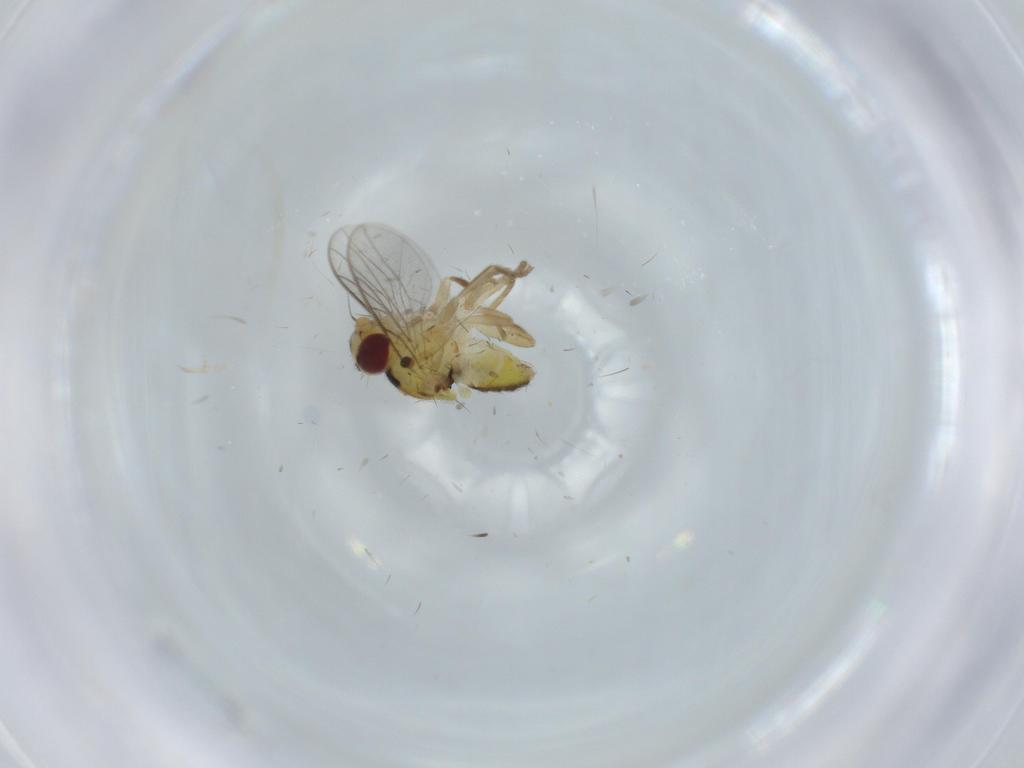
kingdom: Animalia
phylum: Arthropoda
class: Insecta
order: Diptera
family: Chloropidae
